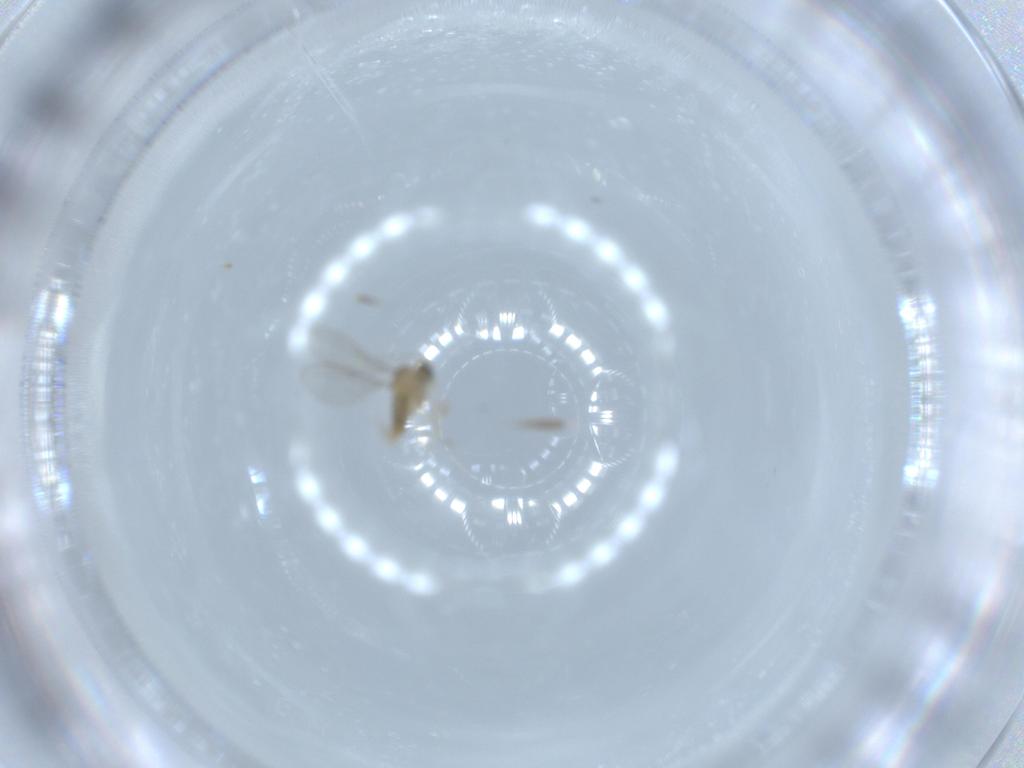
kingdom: Animalia
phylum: Arthropoda
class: Insecta
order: Diptera
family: Cecidomyiidae
